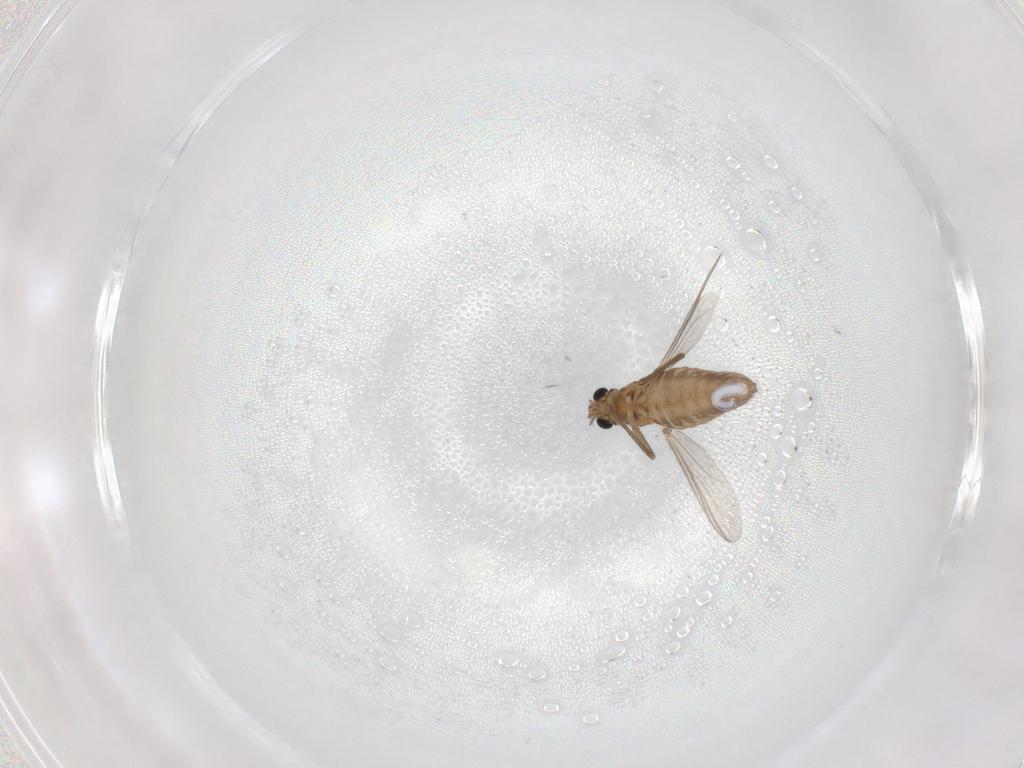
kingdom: Animalia
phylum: Arthropoda
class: Insecta
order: Diptera
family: Chironomidae
